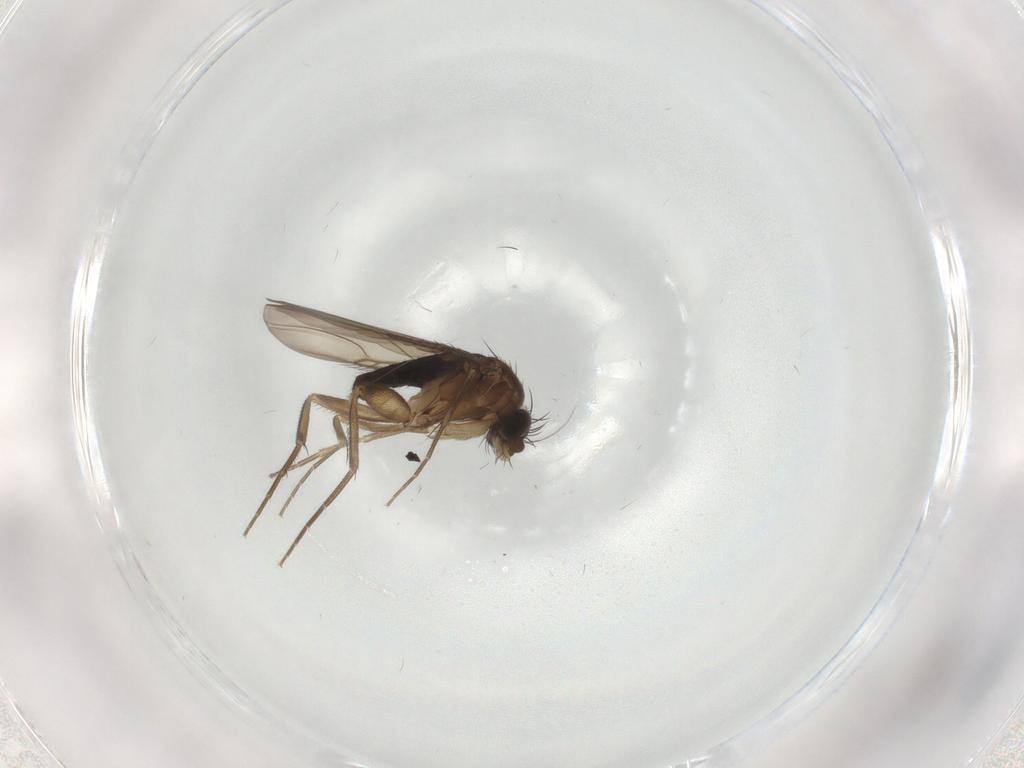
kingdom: Animalia
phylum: Arthropoda
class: Insecta
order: Diptera
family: Phoridae
